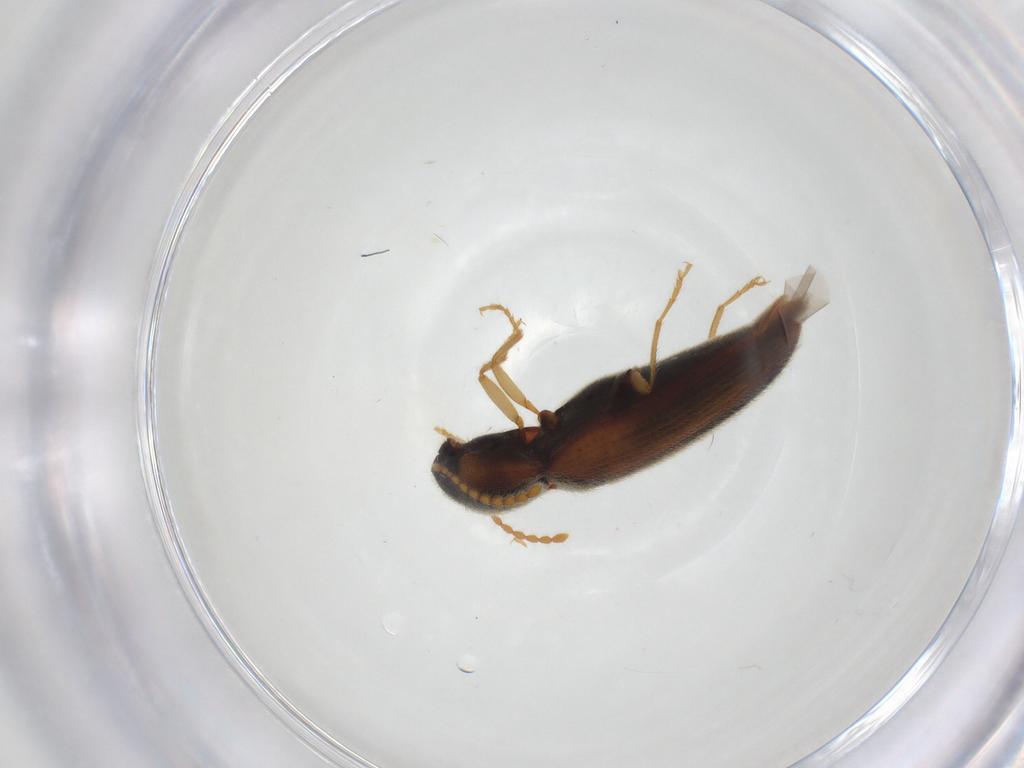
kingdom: Animalia
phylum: Arthropoda
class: Insecta
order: Coleoptera
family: Elateridae
